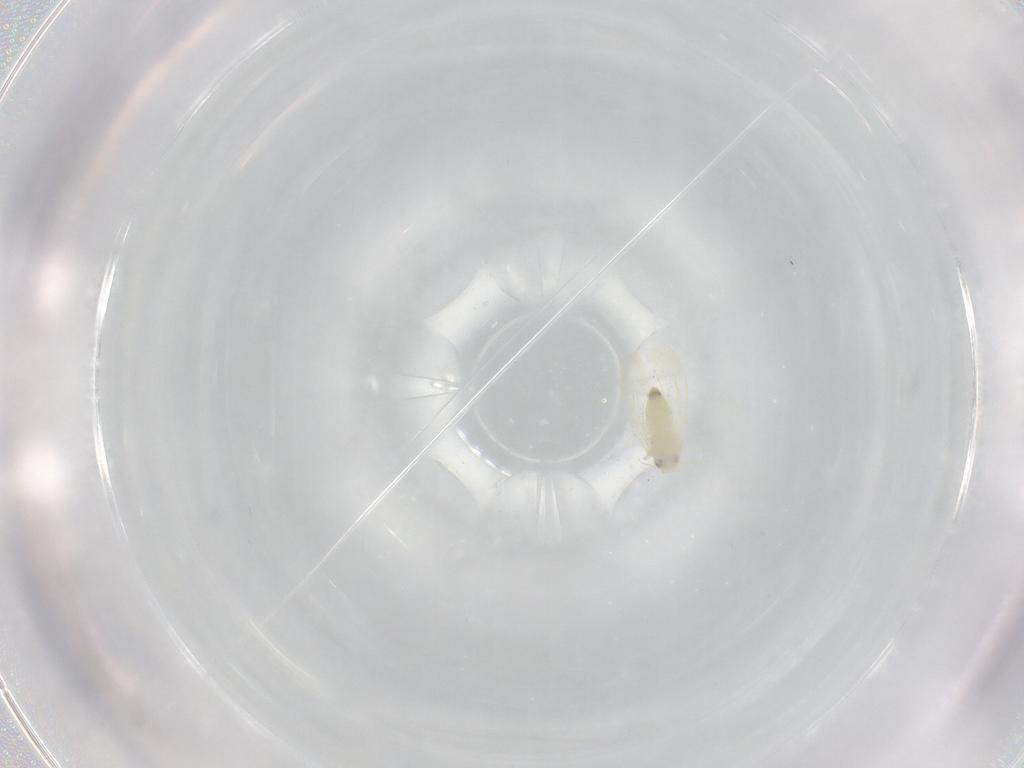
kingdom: Animalia
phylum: Arthropoda
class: Insecta
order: Hemiptera
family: Aleyrodidae
